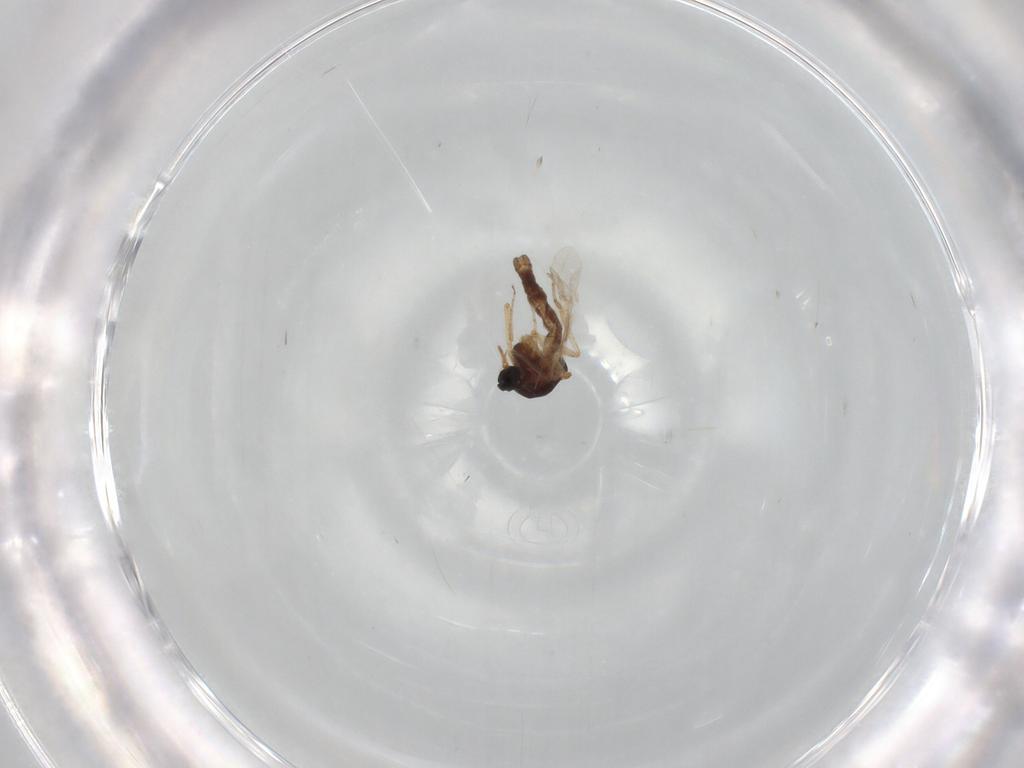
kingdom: Animalia
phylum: Arthropoda
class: Insecta
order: Diptera
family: Ceratopogonidae
